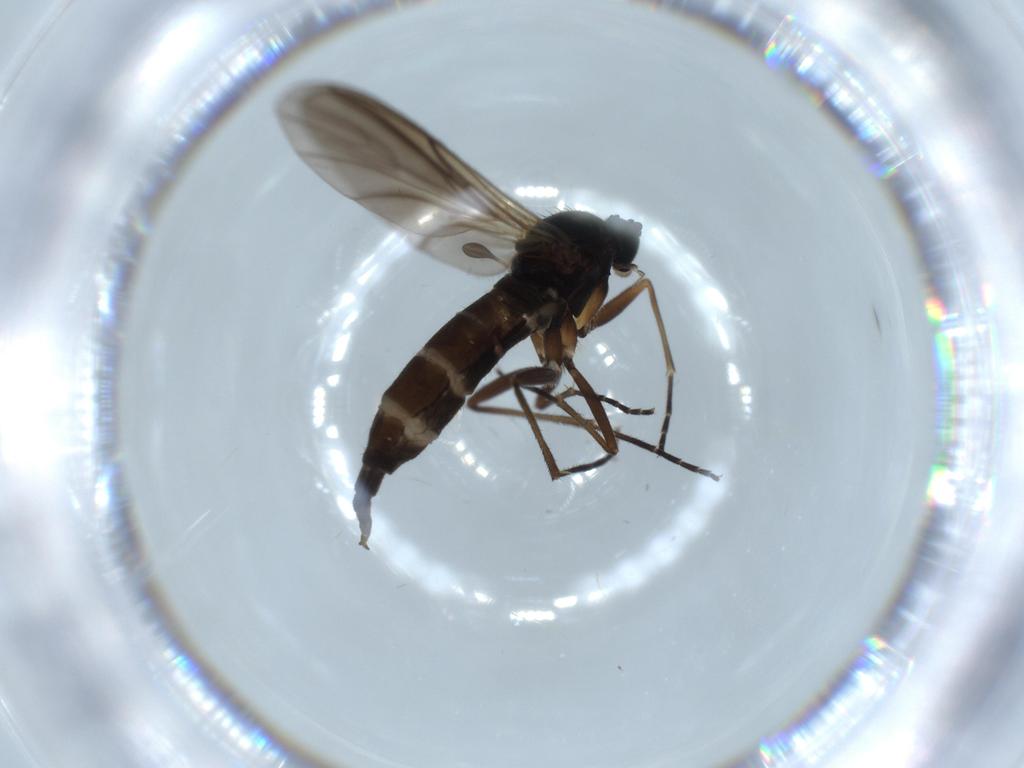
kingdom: Animalia
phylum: Arthropoda
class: Insecta
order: Diptera
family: Sciaridae
